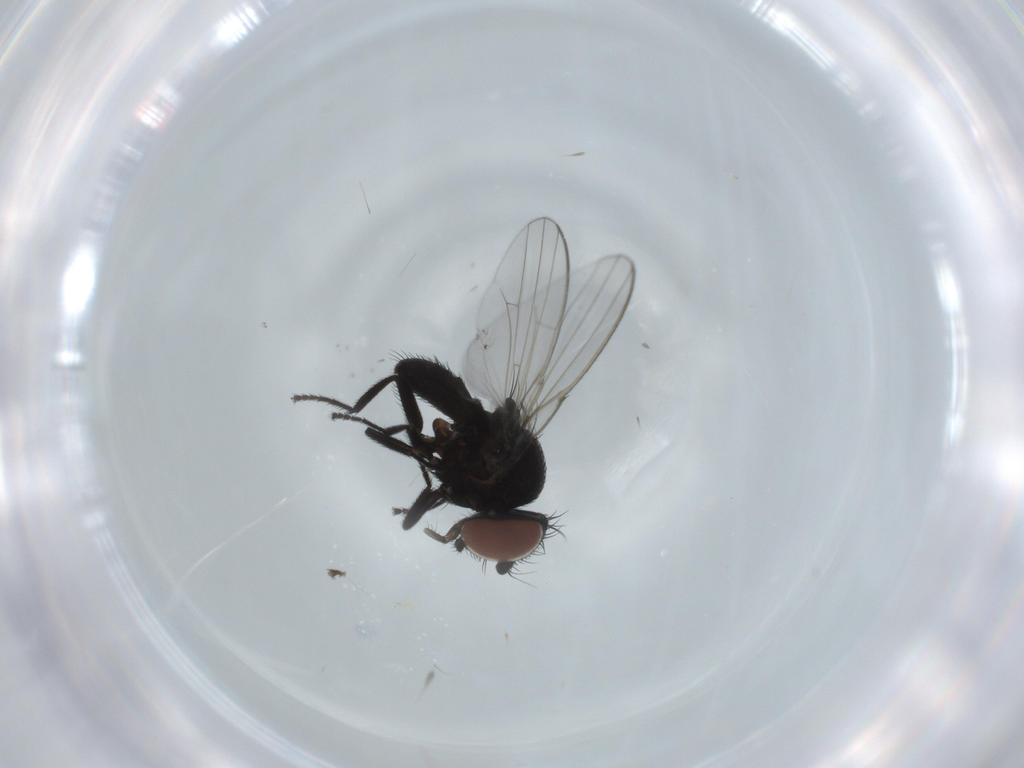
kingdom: Animalia
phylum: Arthropoda
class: Insecta
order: Diptera
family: Milichiidae
